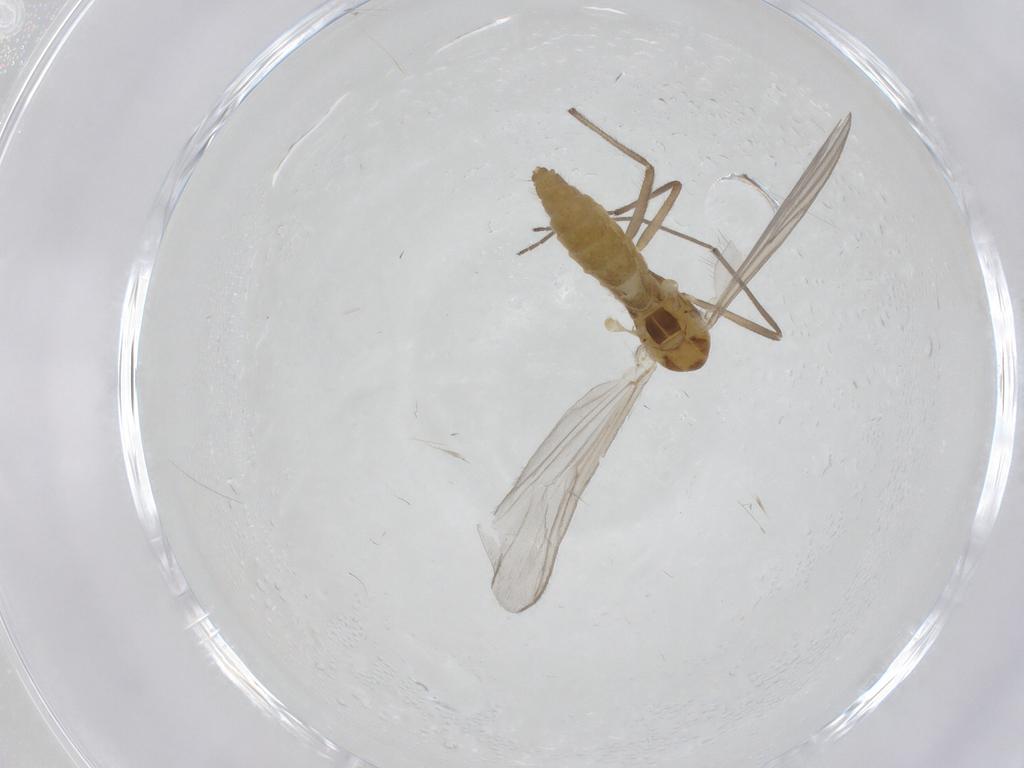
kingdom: Animalia
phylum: Arthropoda
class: Insecta
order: Diptera
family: Chironomidae
